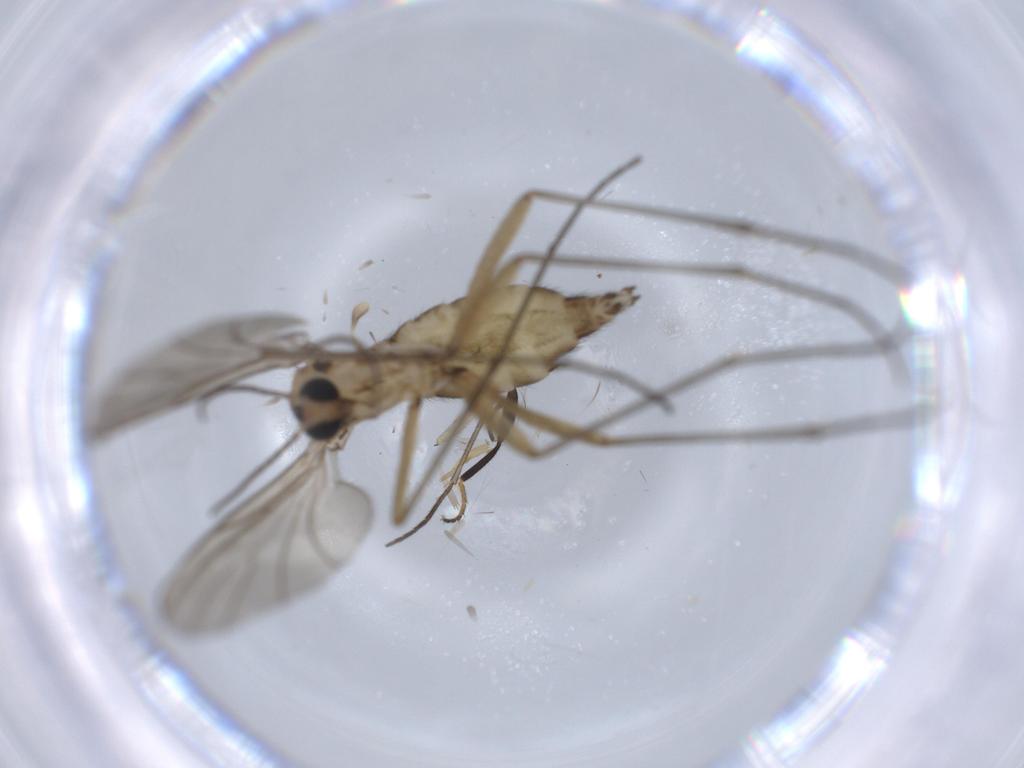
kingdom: Animalia
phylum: Arthropoda
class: Insecta
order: Diptera
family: Sciaridae
